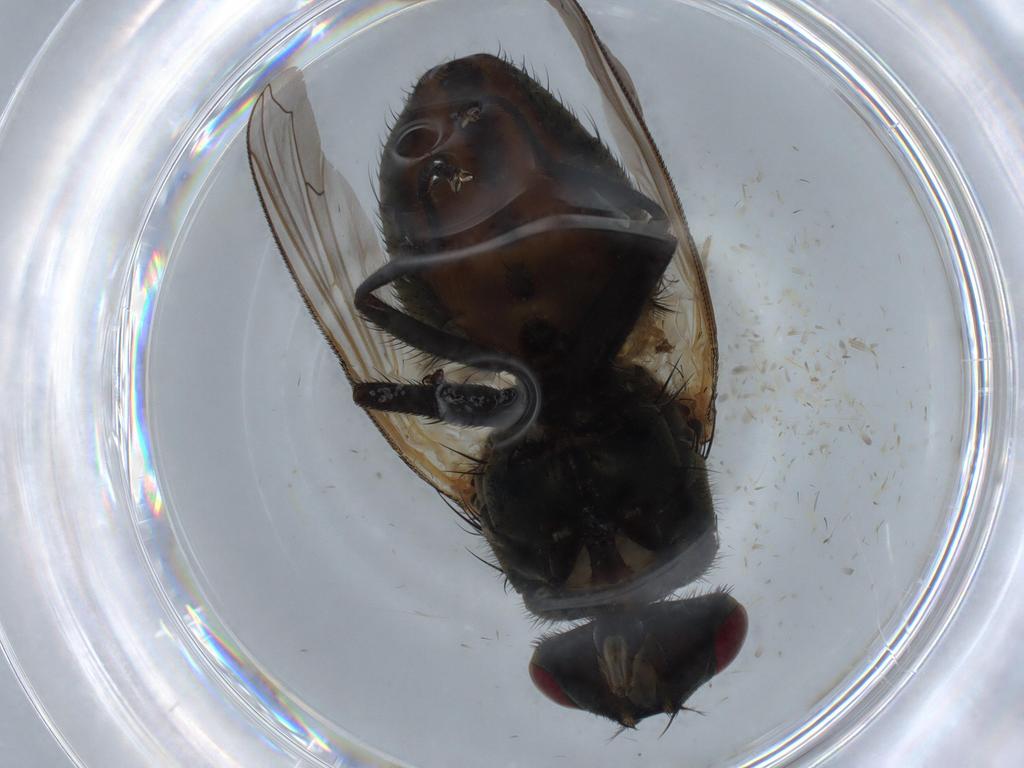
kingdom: Animalia
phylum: Arthropoda
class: Insecta
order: Diptera
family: Psychodidae
